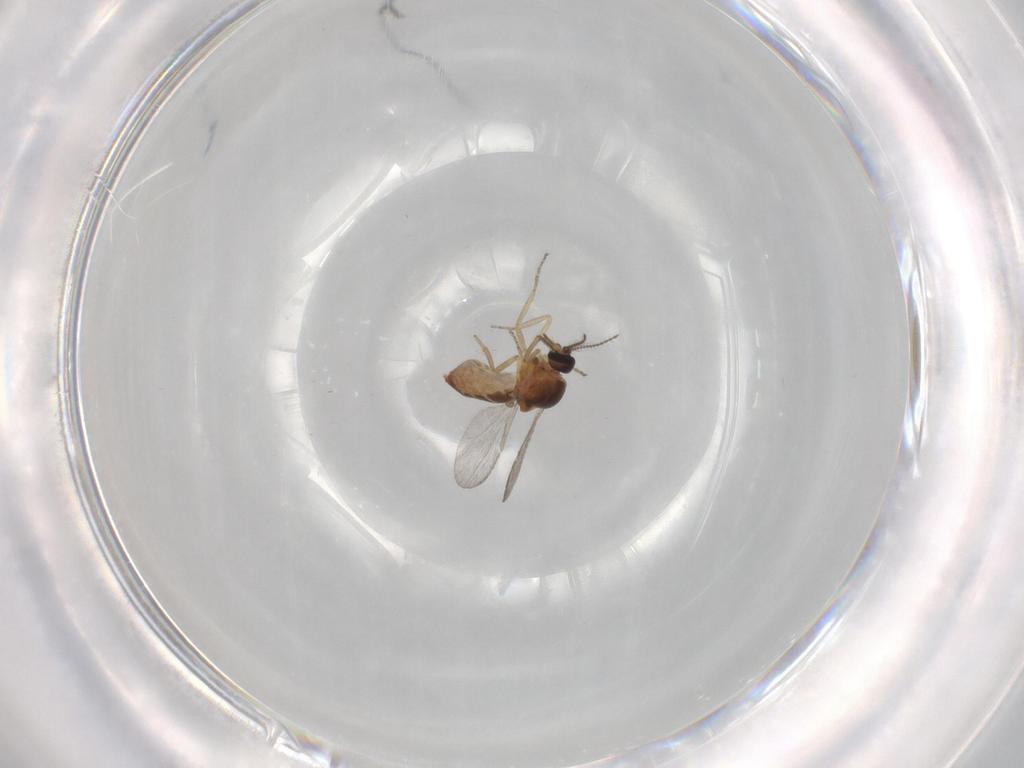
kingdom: Animalia
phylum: Arthropoda
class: Insecta
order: Diptera
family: Ceratopogonidae
